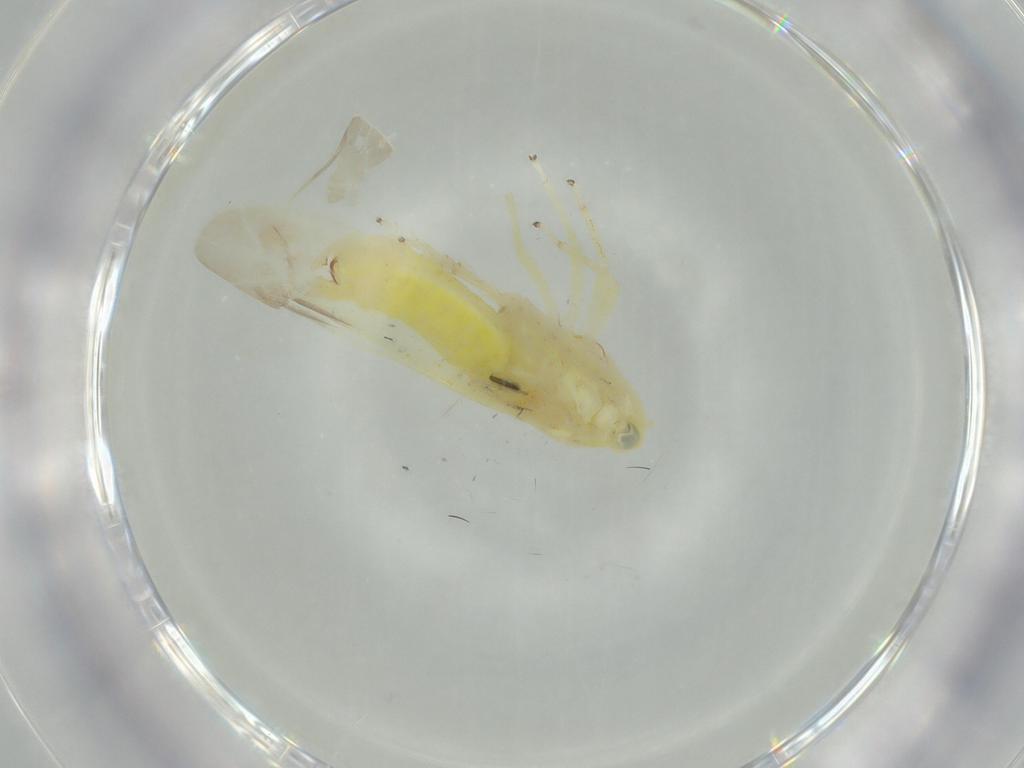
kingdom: Animalia
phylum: Arthropoda
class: Insecta
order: Hemiptera
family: Cicadellidae
